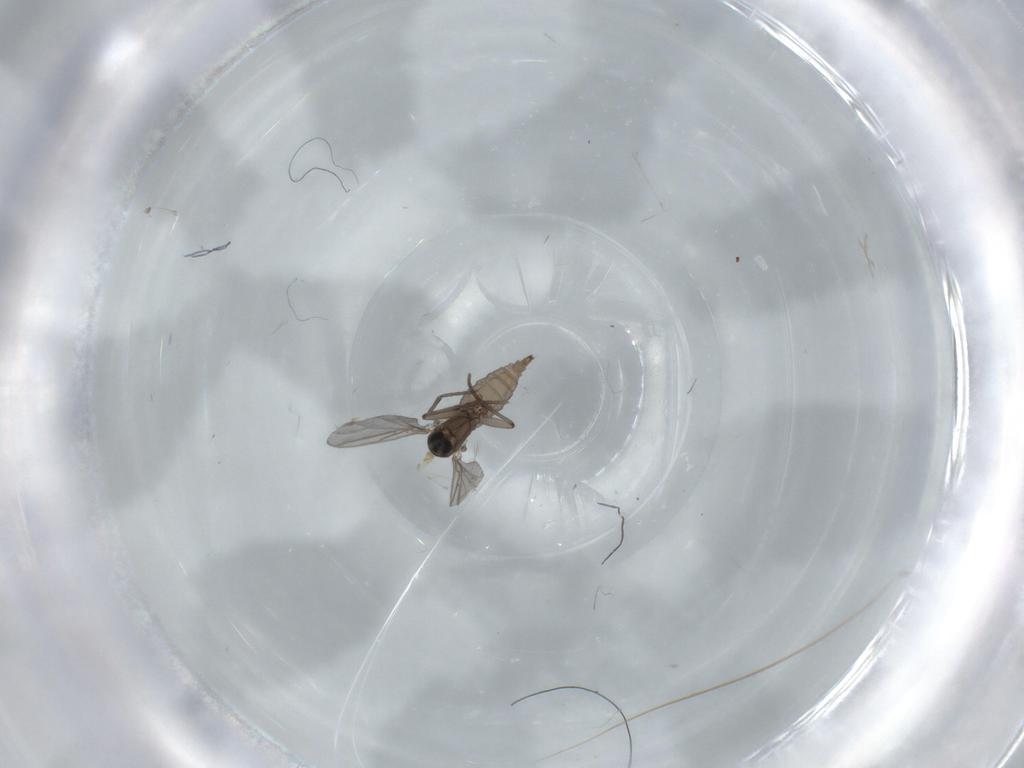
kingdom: Animalia
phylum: Arthropoda
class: Insecta
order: Diptera
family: Sciaridae
